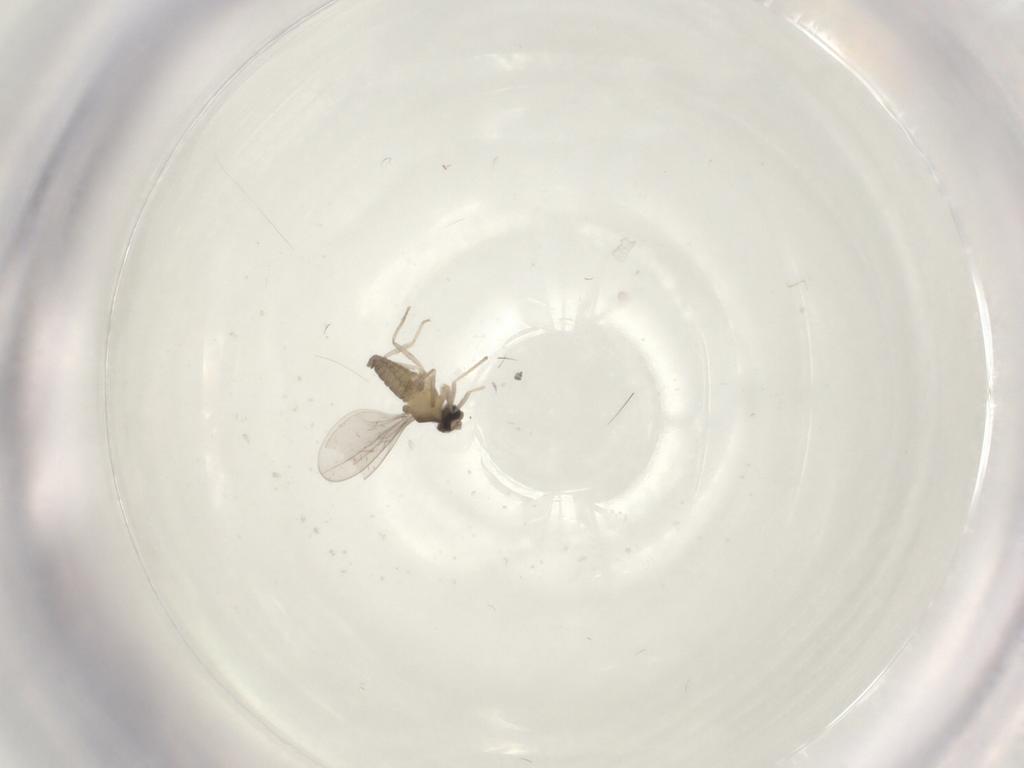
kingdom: Animalia
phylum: Arthropoda
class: Insecta
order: Diptera
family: Cecidomyiidae
